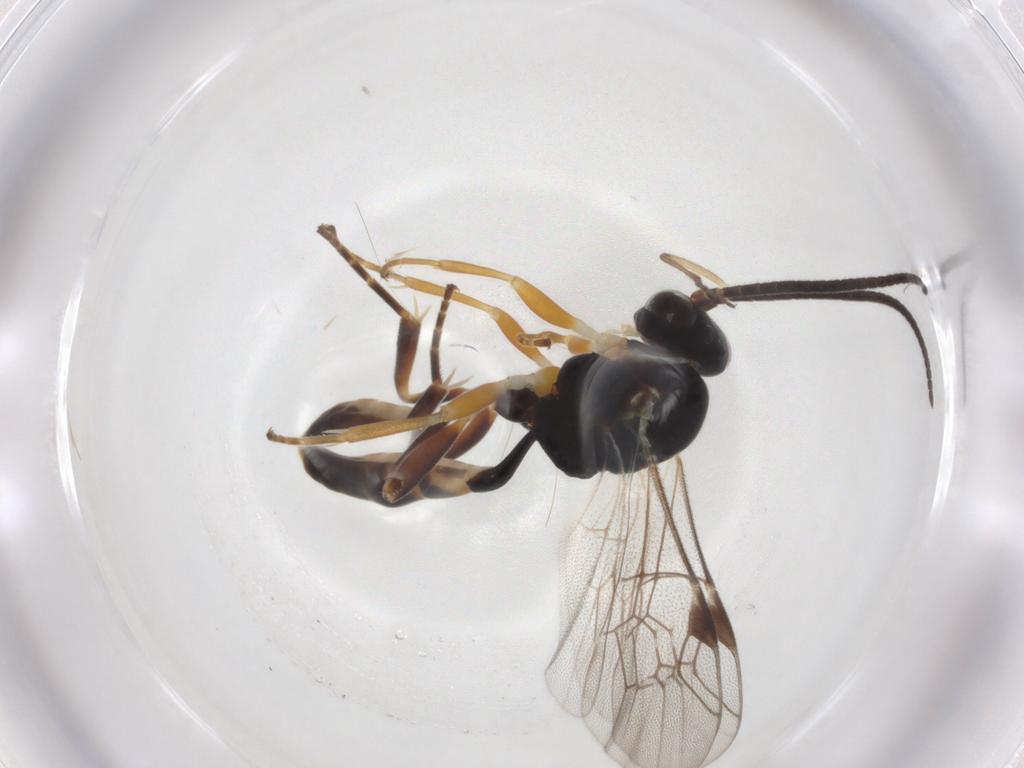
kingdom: Animalia
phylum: Arthropoda
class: Insecta
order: Hymenoptera
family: Ichneumonidae
